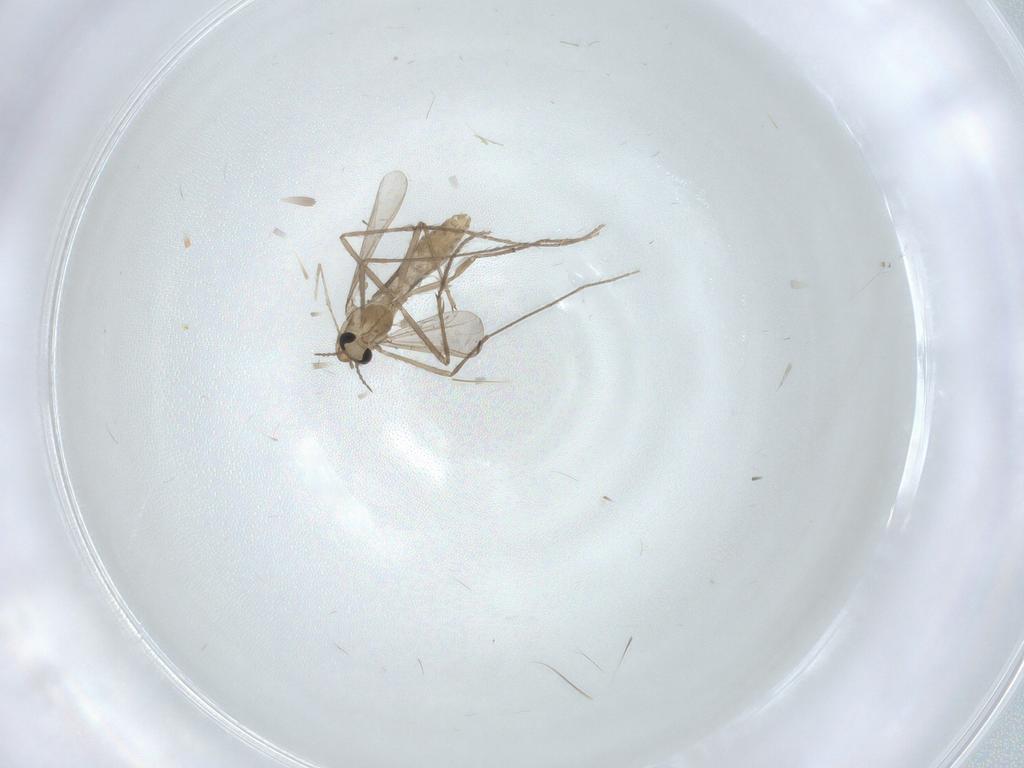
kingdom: Animalia
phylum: Arthropoda
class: Insecta
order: Diptera
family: Chironomidae
